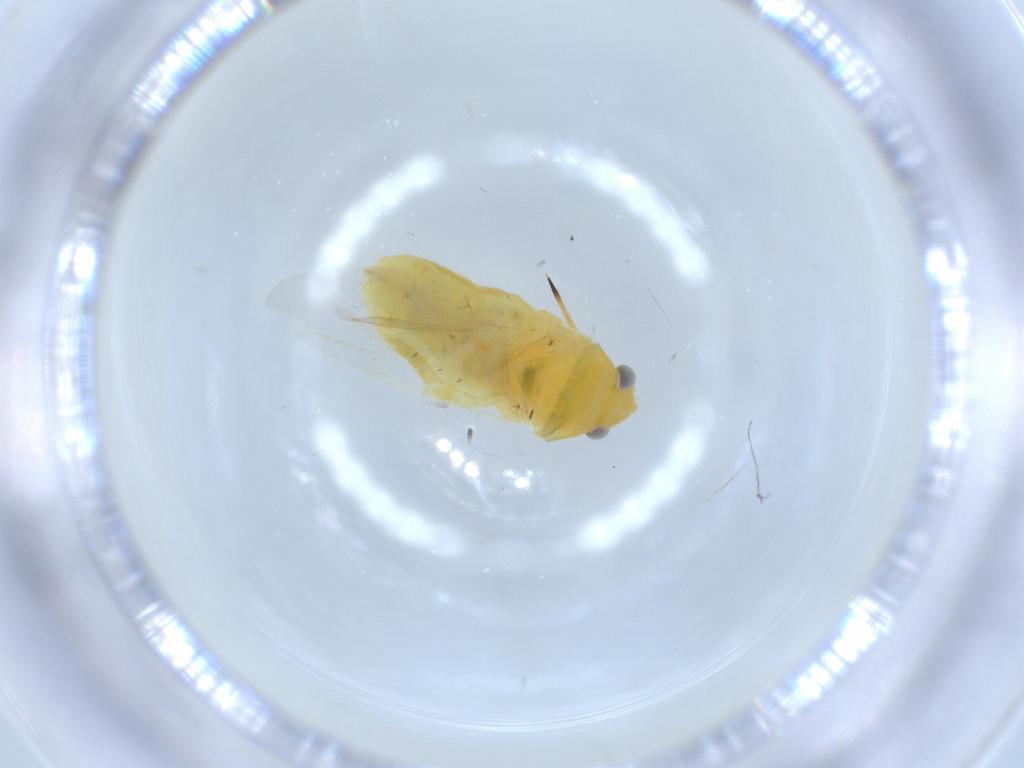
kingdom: Animalia
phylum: Arthropoda
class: Insecta
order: Hemiptera
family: Miridae
